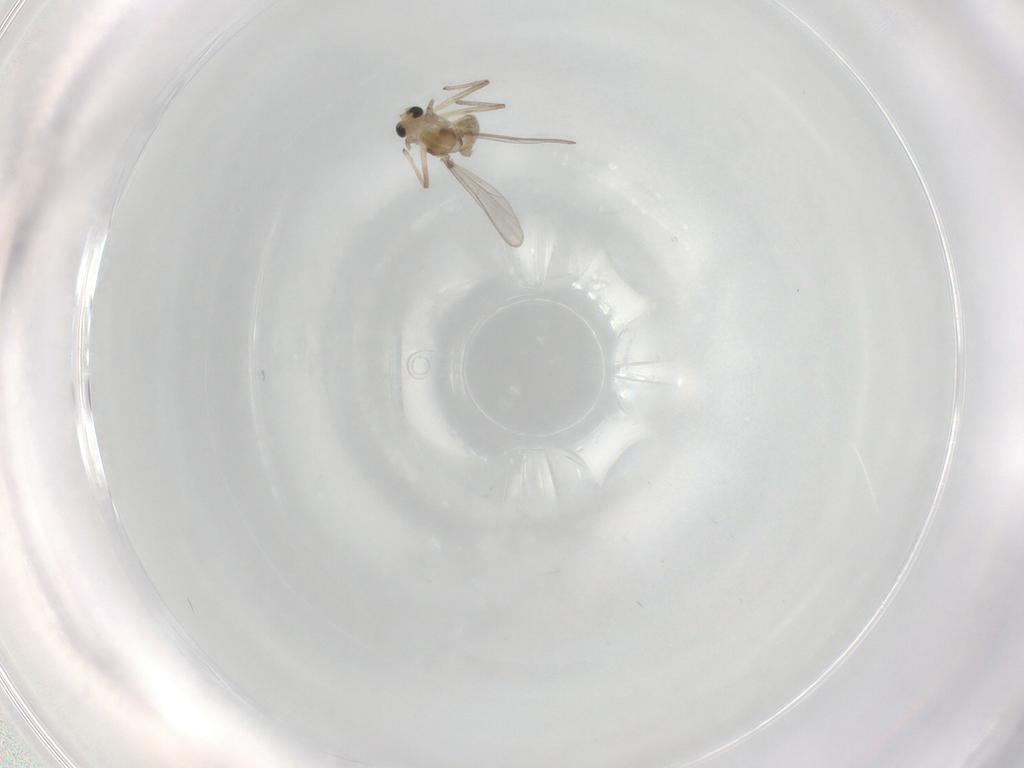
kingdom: Animalia
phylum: Arthropoda
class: Insecta
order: Diptera
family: Chironomidae
